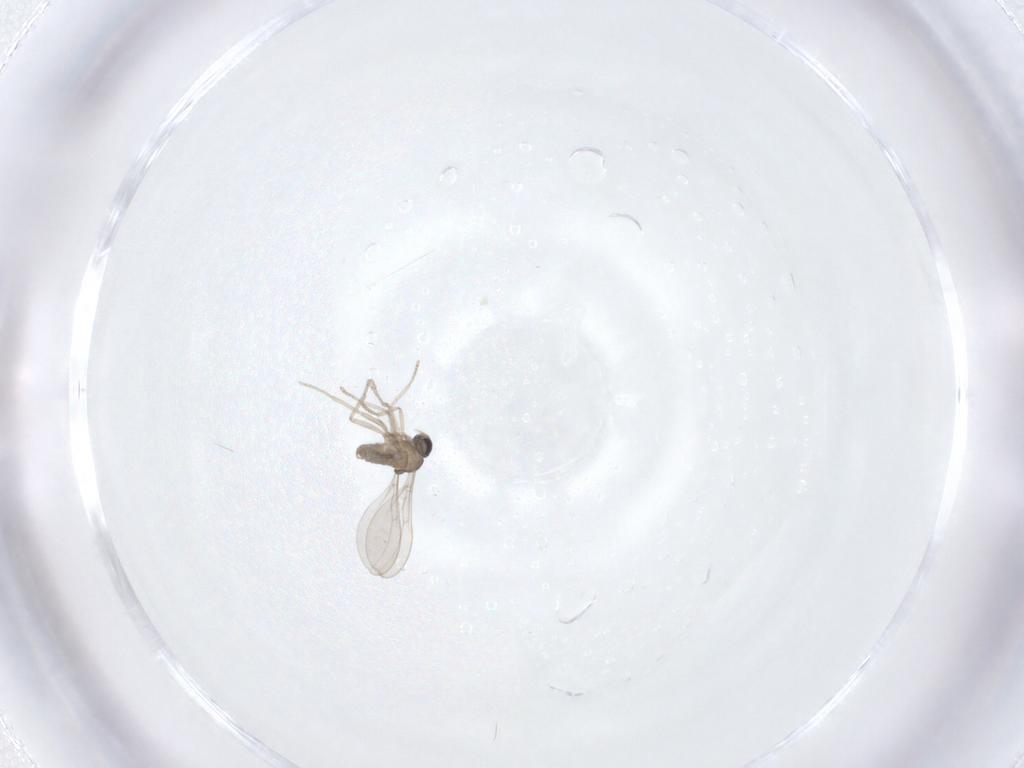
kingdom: Animalia
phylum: Arthropoda
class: Insecta
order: Diptera
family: Cecidomyiidae
